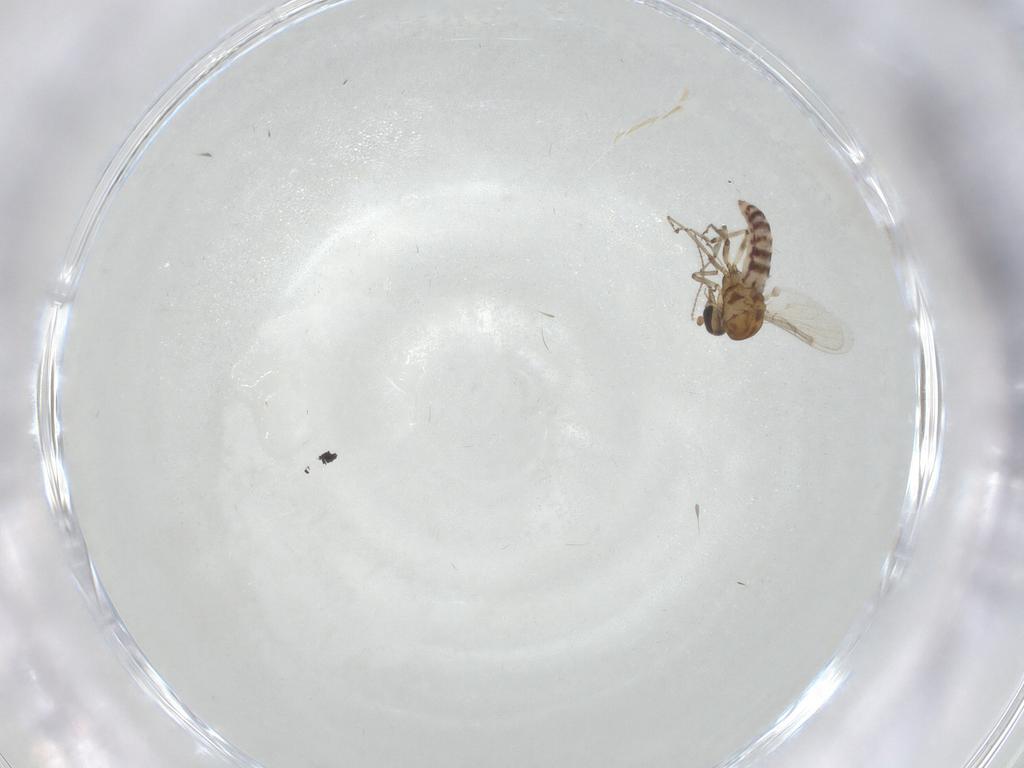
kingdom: Animalia
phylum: Arthropoda
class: Insecta
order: Diptera
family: Ceratopogonidae
